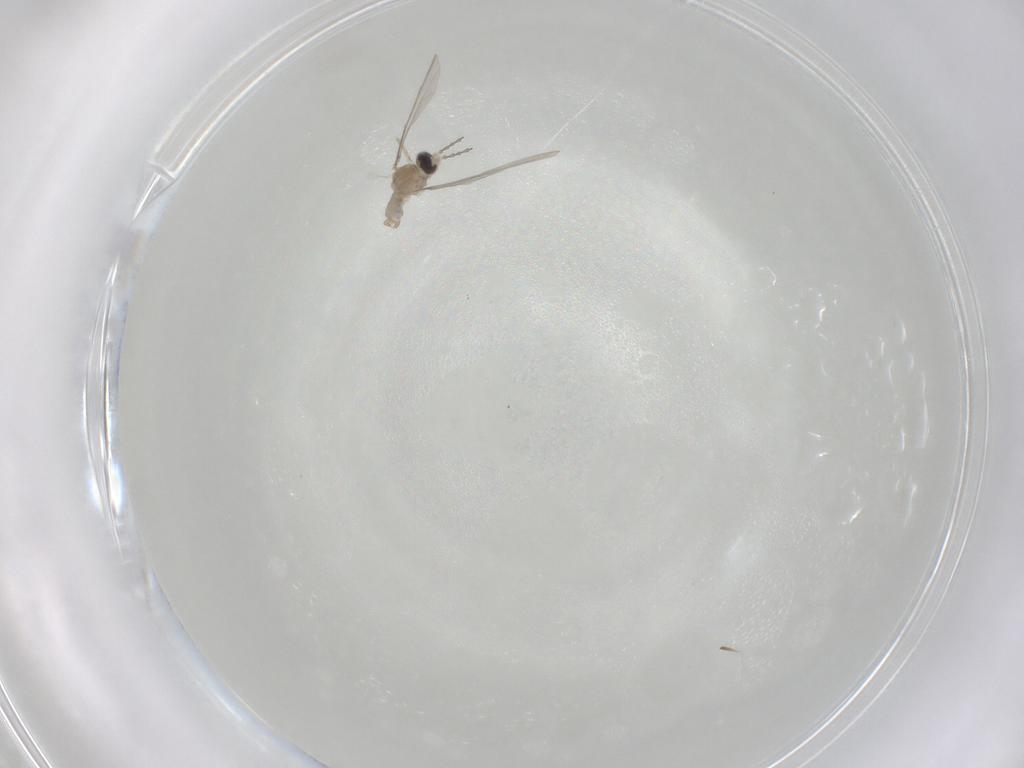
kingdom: Animalia
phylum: Arthropoda
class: Insecta
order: Diptera
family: Cecidomyiidae
